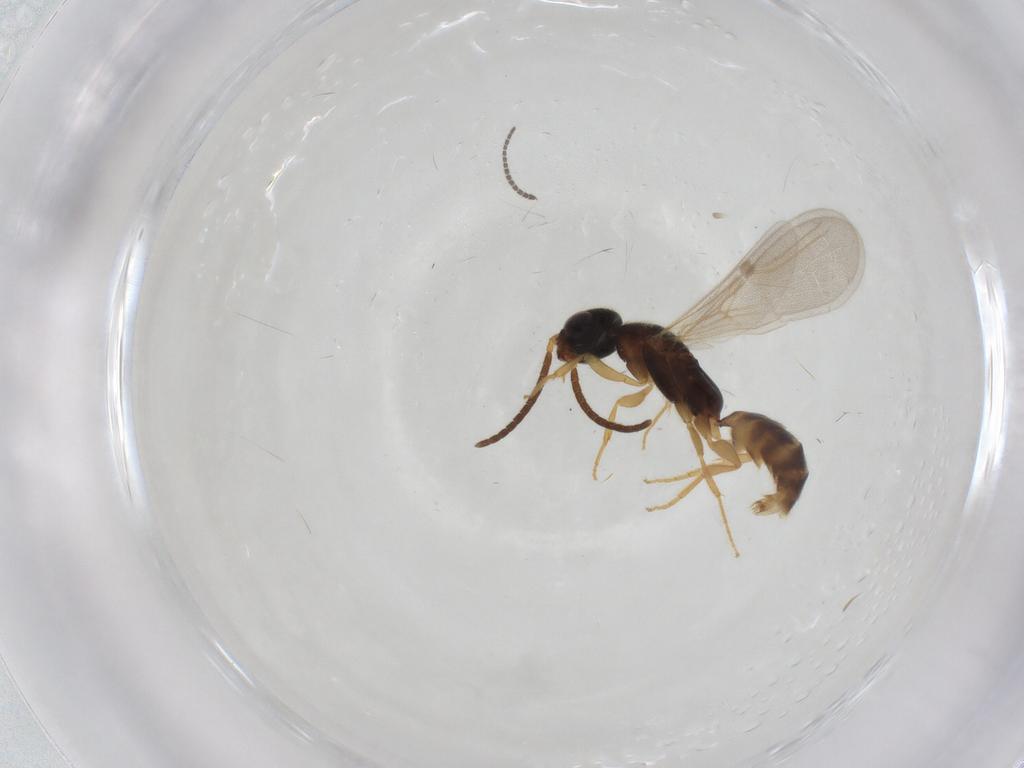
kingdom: Animalia
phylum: Arthropoda
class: Insecta
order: Hymenoptera
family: Bethylidae
